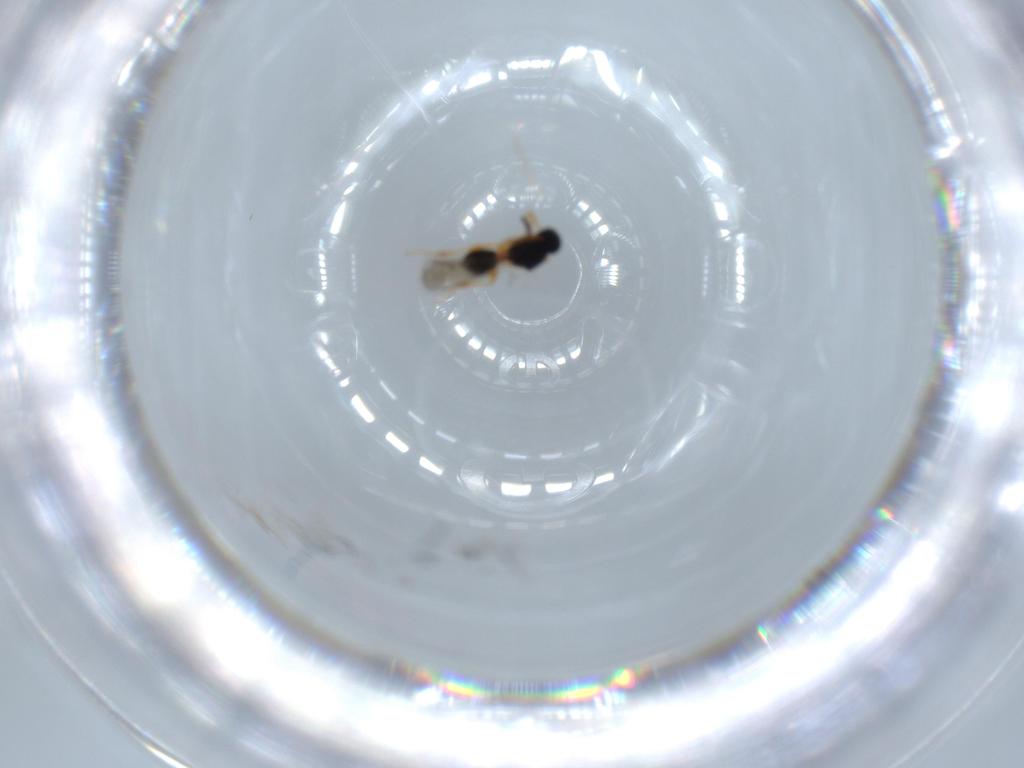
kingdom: Animalia
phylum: Arthropoda
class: Insecta
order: Hymenoptera
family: Platygastridae
